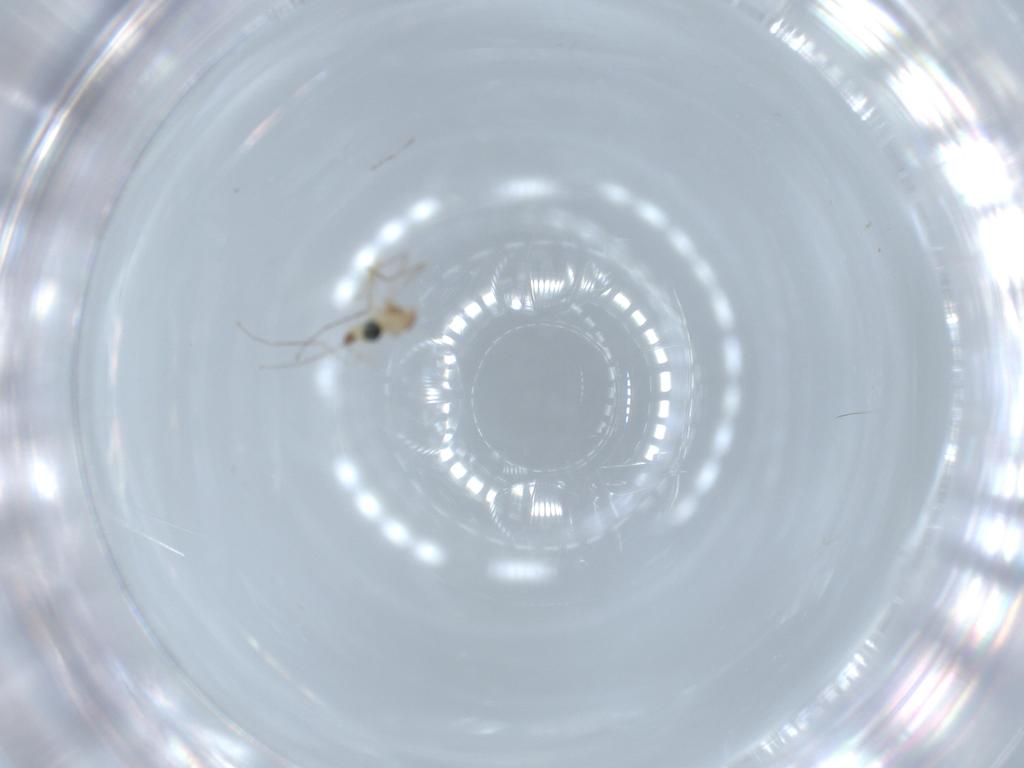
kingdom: Animalia
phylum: Arthropoda
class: Insecta
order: Diptera
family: Cecidomyiidae
